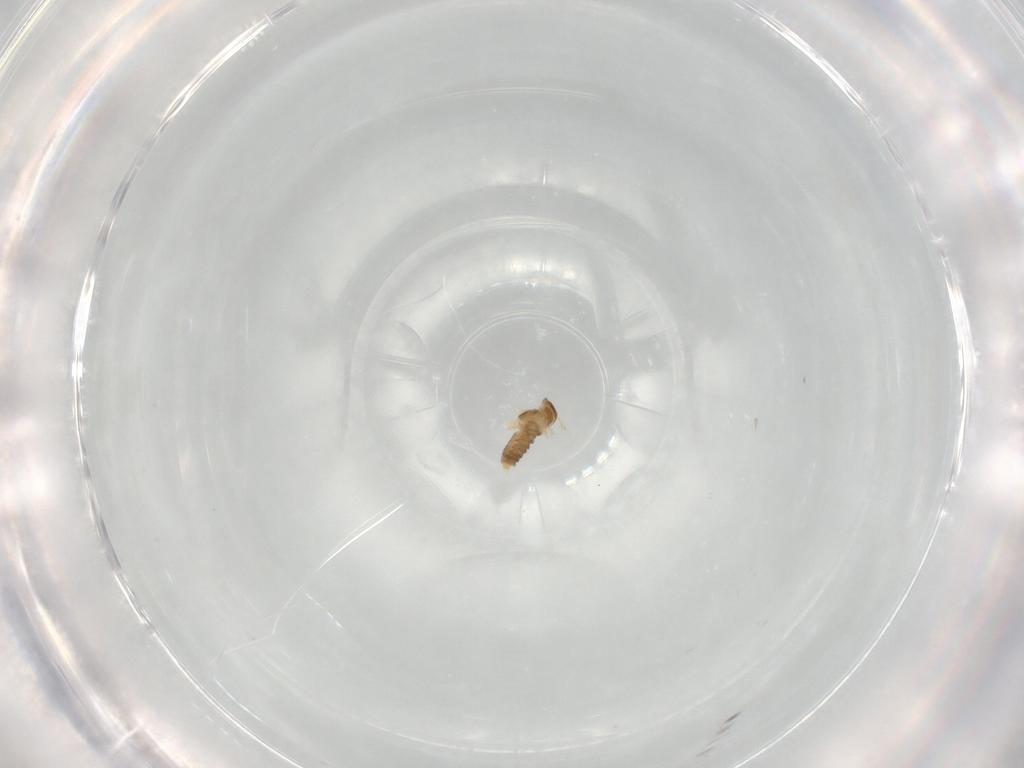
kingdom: Animalia
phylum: Arthropoda
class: Insecta
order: Diptera
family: Cecidomyiidae
